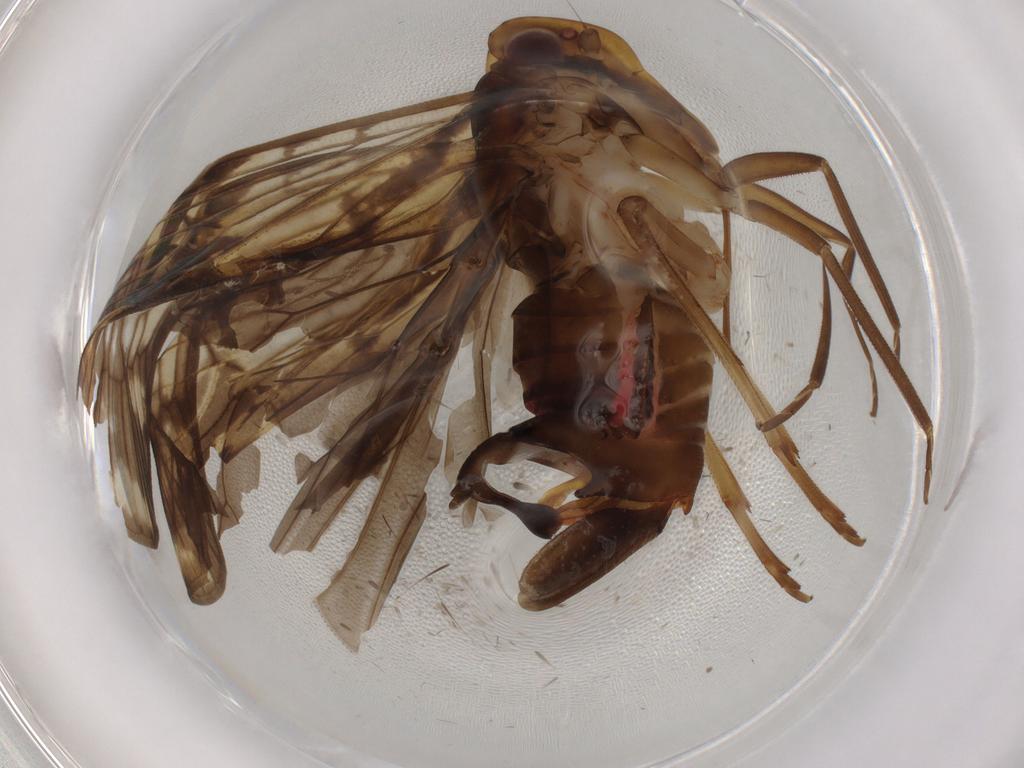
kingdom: Animalia
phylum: Arthropoda
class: Insecta
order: Hemiptera
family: Cixiidae
